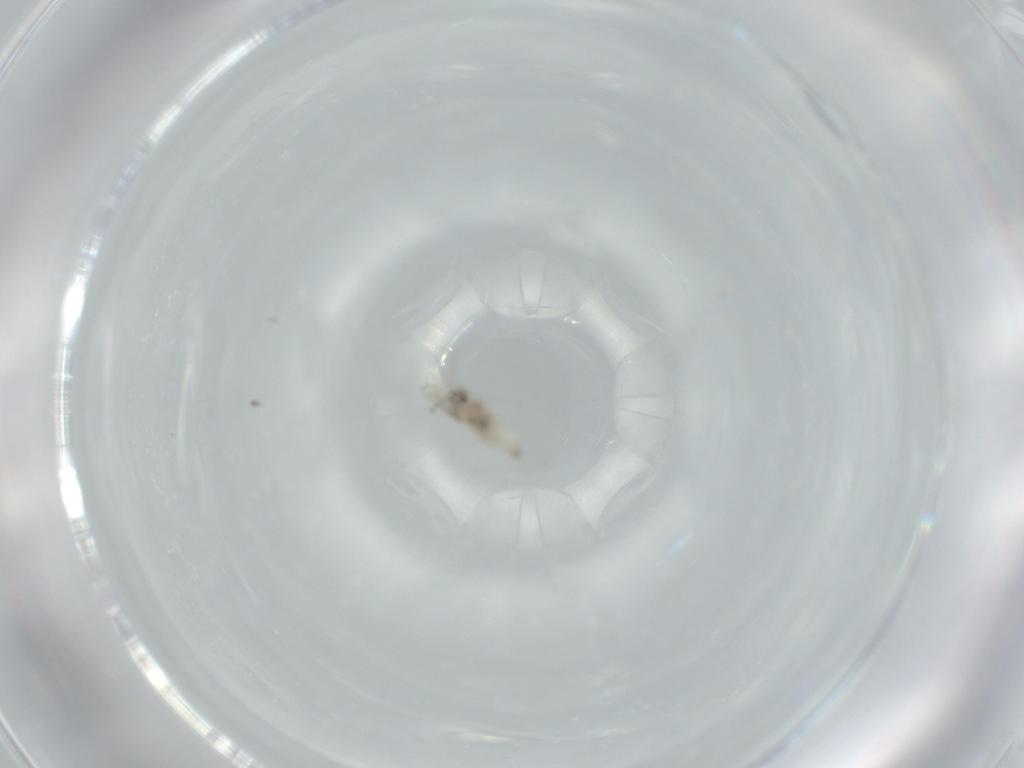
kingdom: Animalia
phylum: Arthropoda
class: Insecta
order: Diptera
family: Cecidomyiidae
